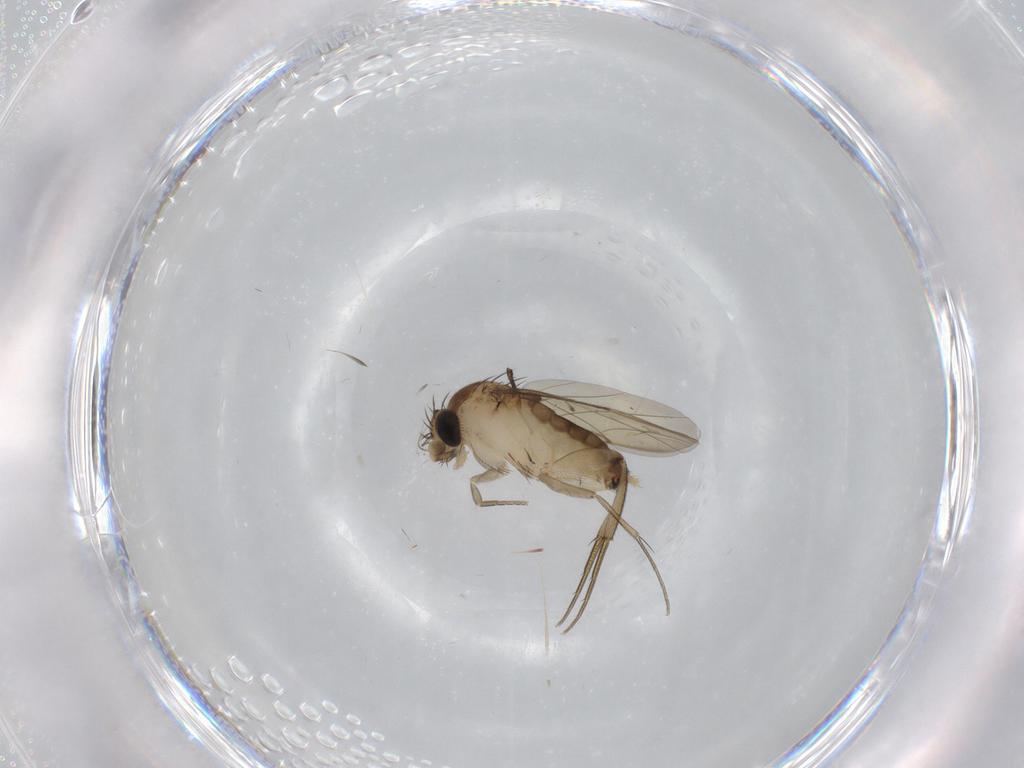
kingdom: Animalia
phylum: Arthropoda
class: Insecta
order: Diptera
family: Phoridae
